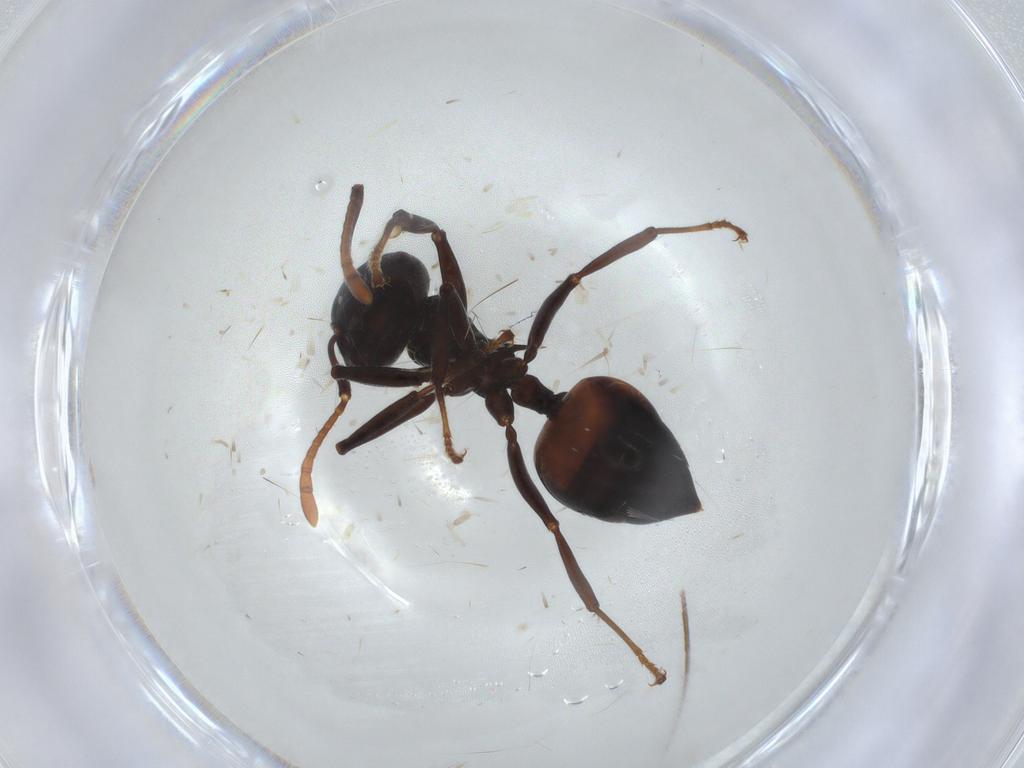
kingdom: Animalia
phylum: Arthropoda
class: Insecta
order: Hymenoptera
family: Formicidae
